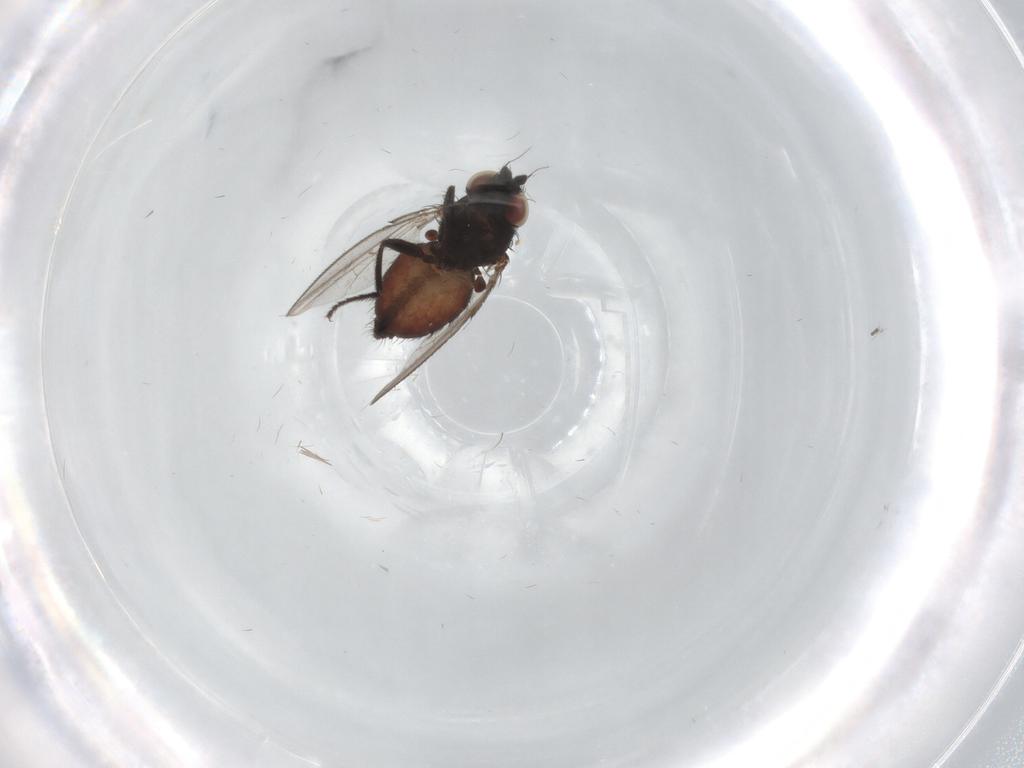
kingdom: Animalia
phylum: Arthropoda
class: Insecta
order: Diptera
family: Milichiidae
